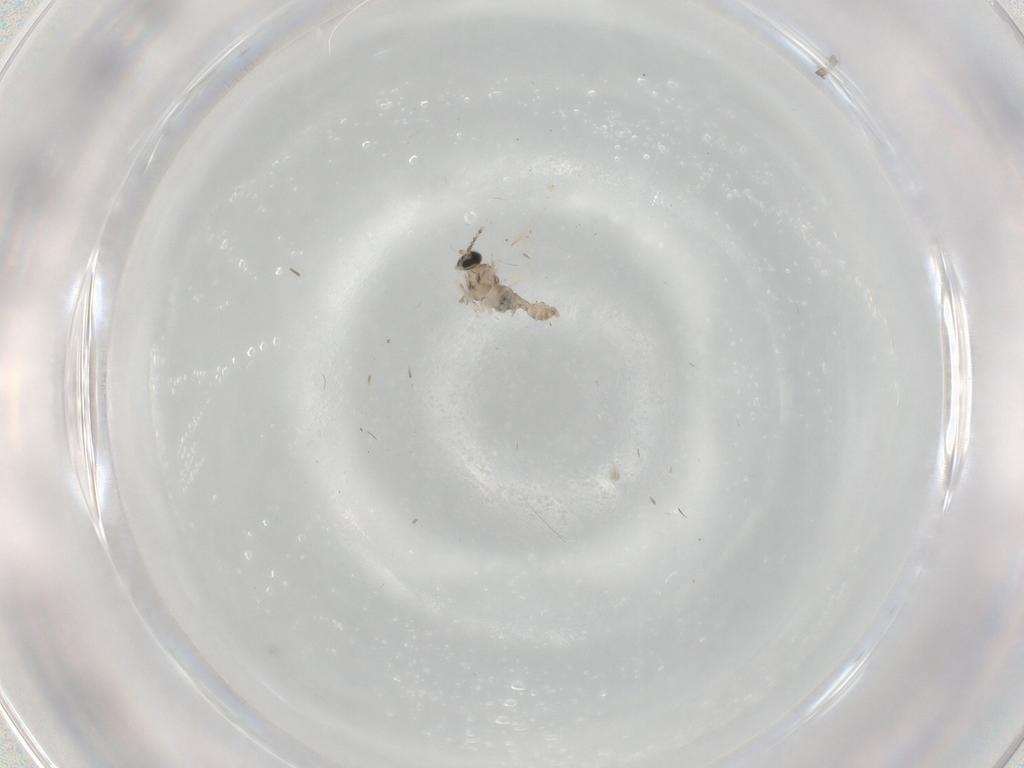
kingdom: Animalia
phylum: Arthropoda
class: Insecta
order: Diptera
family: Cecidomyiidae
